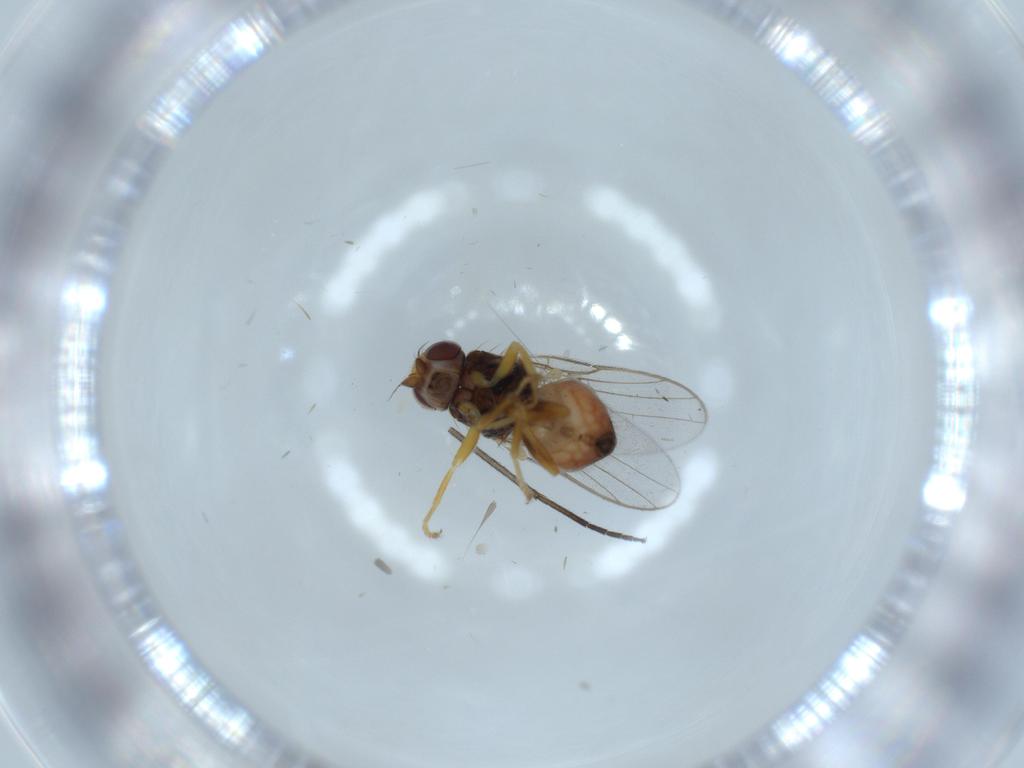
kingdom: Animalia
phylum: Arthropoda
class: Insecta
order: Diptera
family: Chloropidae
